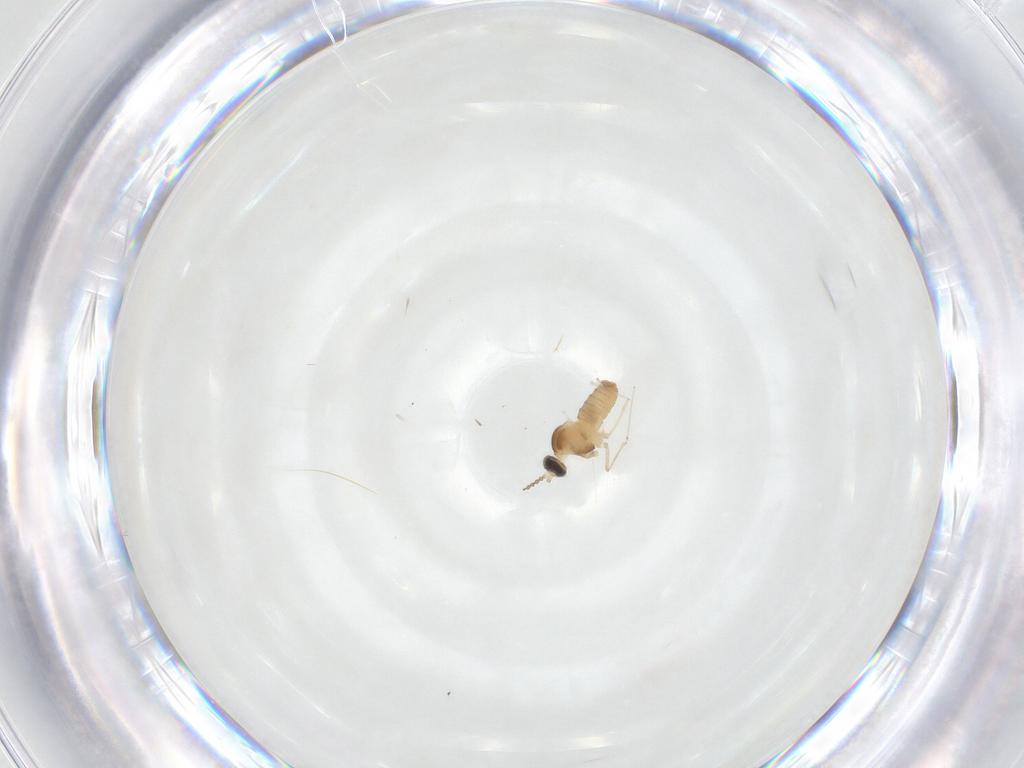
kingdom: Animalia
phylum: Arthropoda
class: Insecta
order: Diptera
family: Cecidomyiidae
